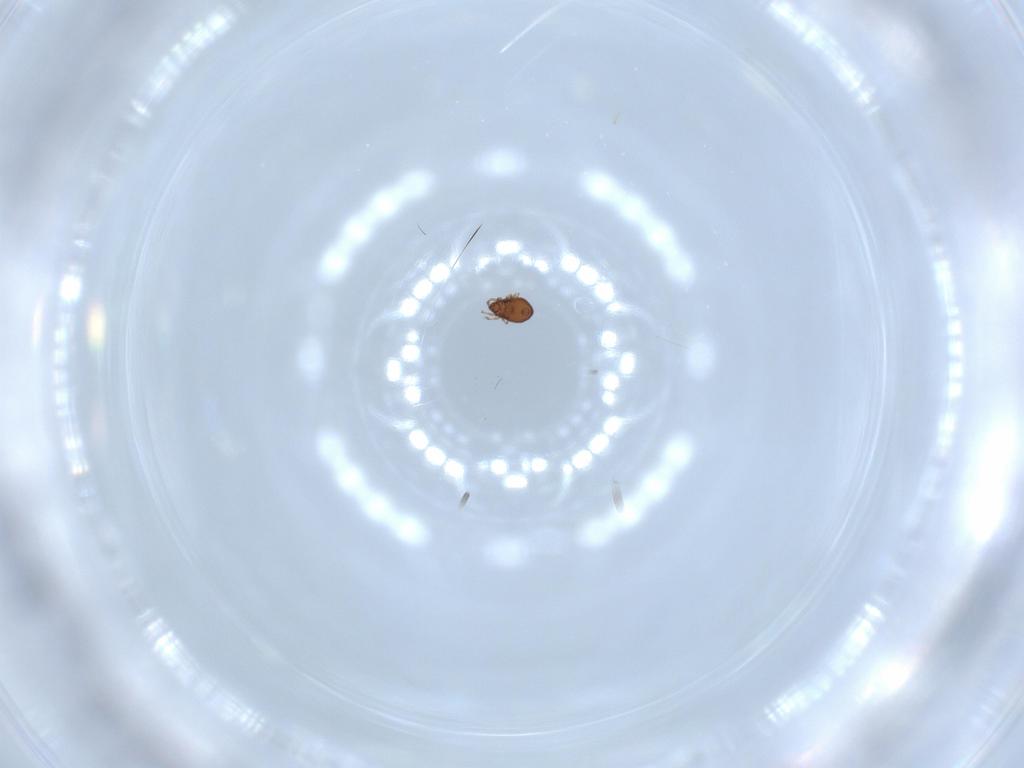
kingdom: Animalia
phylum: Arthropoda
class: Arachnida
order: Sarcoptiformes
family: Dendroeremaeidae
